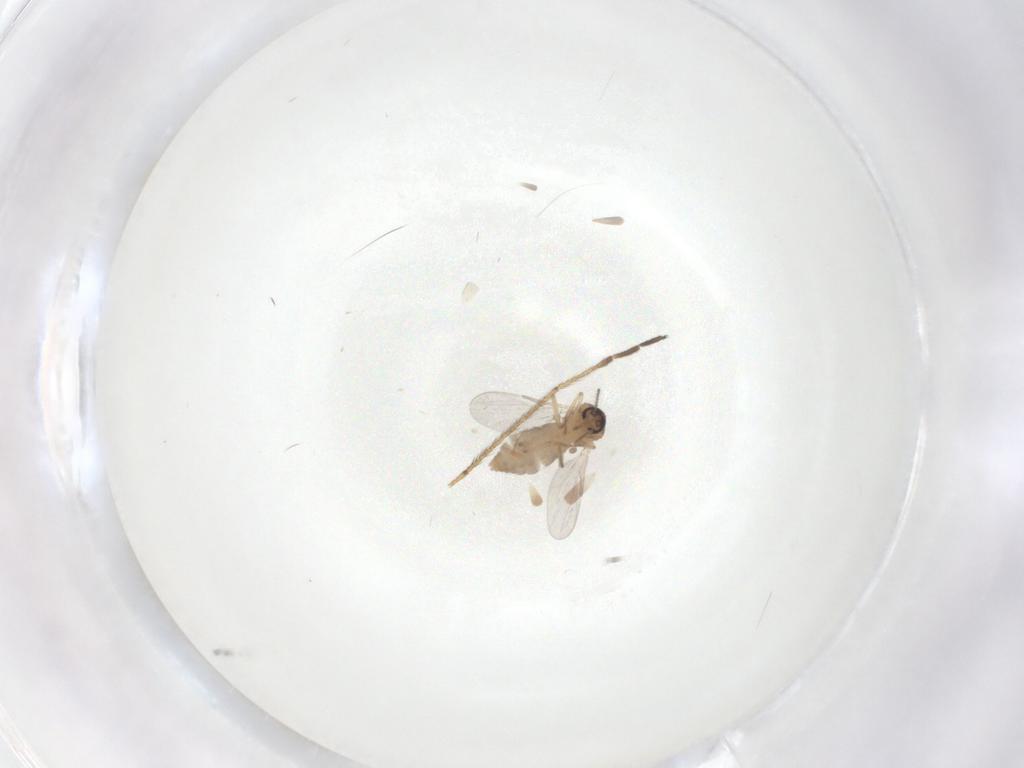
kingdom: Animalia
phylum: Arthropoda
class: Insecta
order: Diptera
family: Ceratopogonidae
